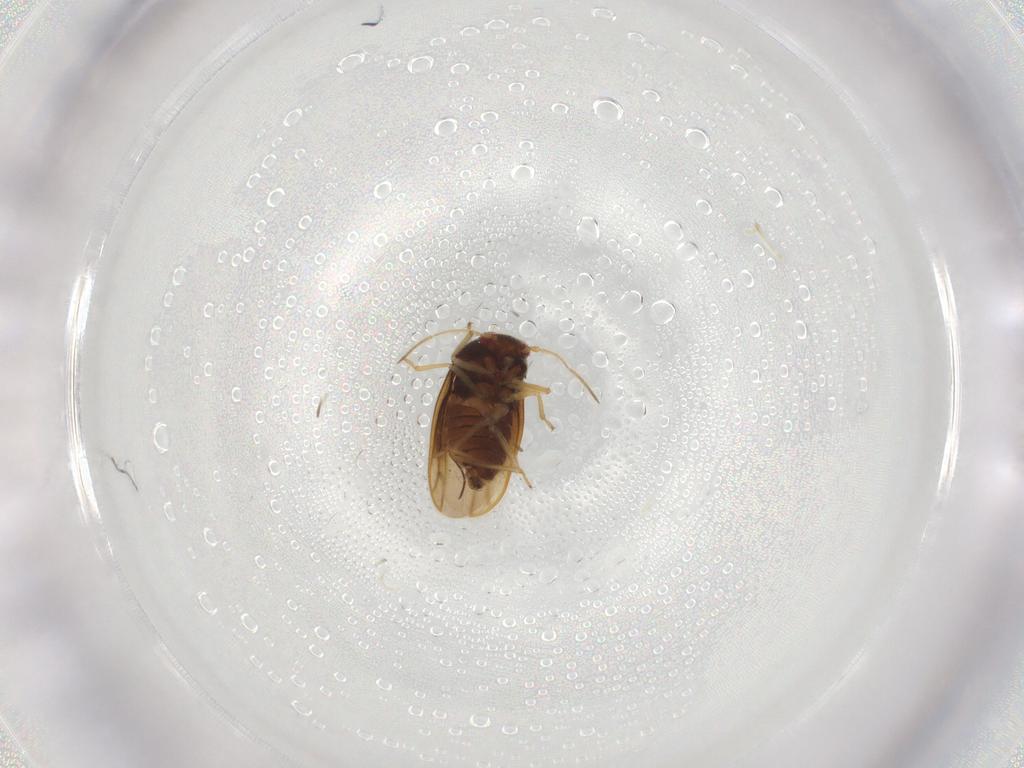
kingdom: Animalia
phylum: Arthropoda
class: Insecta
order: Hemiptera
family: Schizopteridae
